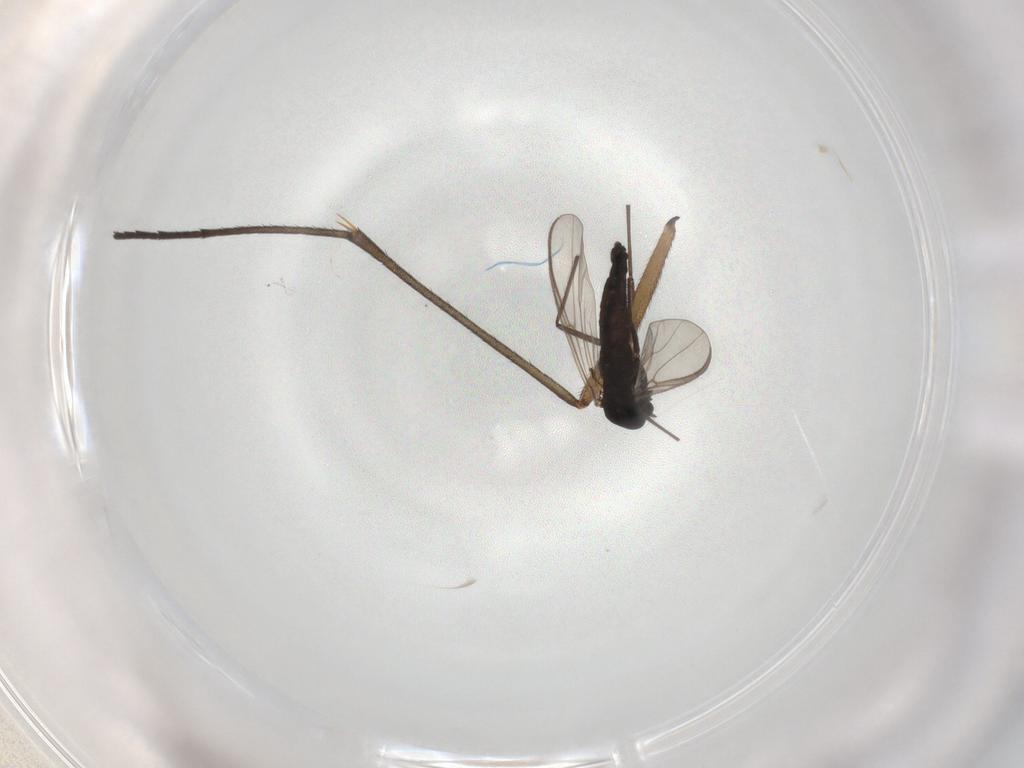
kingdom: Animalia
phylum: Arthropoda
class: Insecta
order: Diptera
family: Chironomidae
